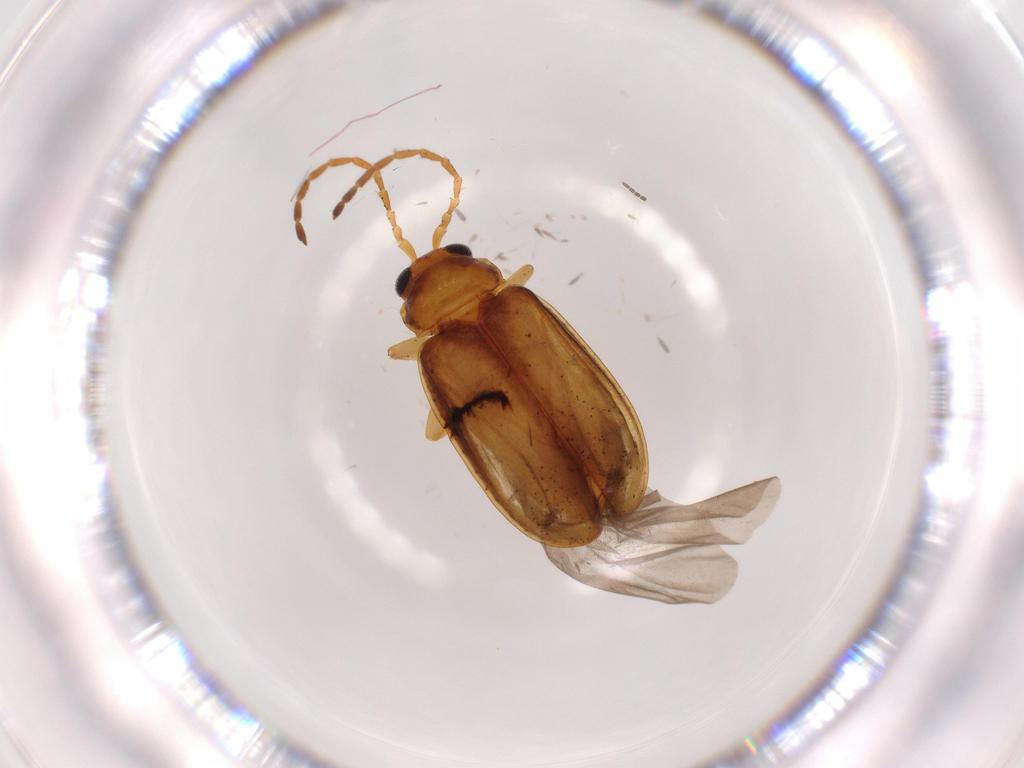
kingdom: Animalia
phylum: Arthropoda
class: Insecta
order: Coleoptera
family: Chrysomelidae
